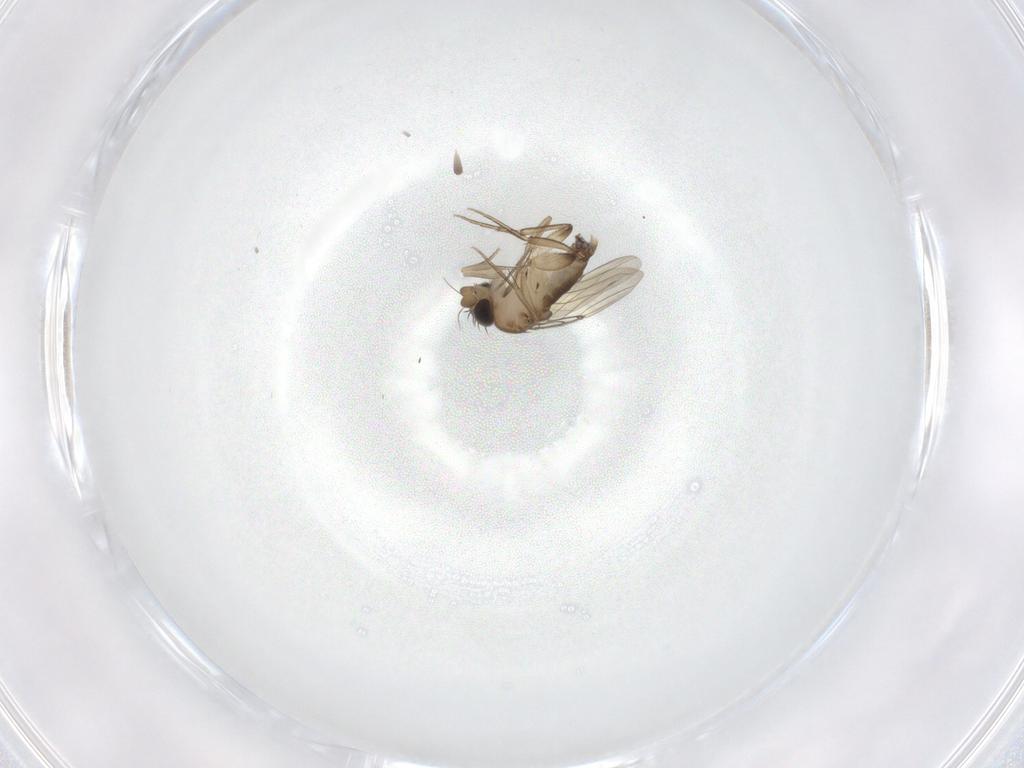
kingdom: Animalia
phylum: Arthropoda
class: Insecta
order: Diptera
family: Phoridae
